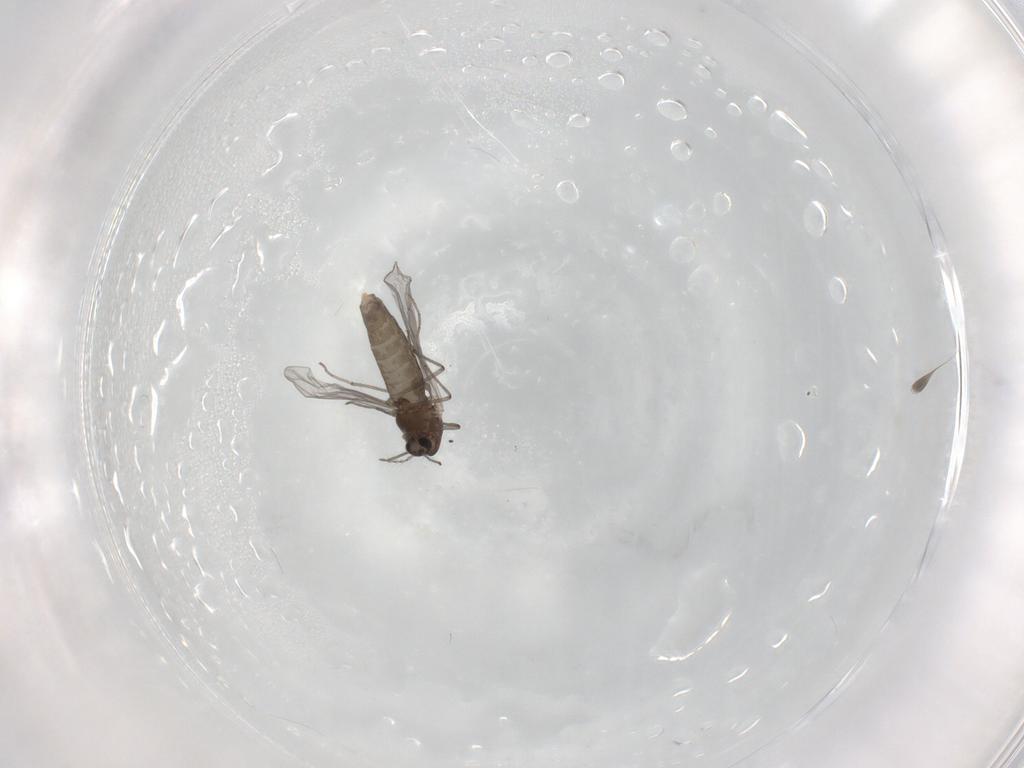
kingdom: Animalia
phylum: Arthropoda
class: Insecta
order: Diptera
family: Chironomidae
